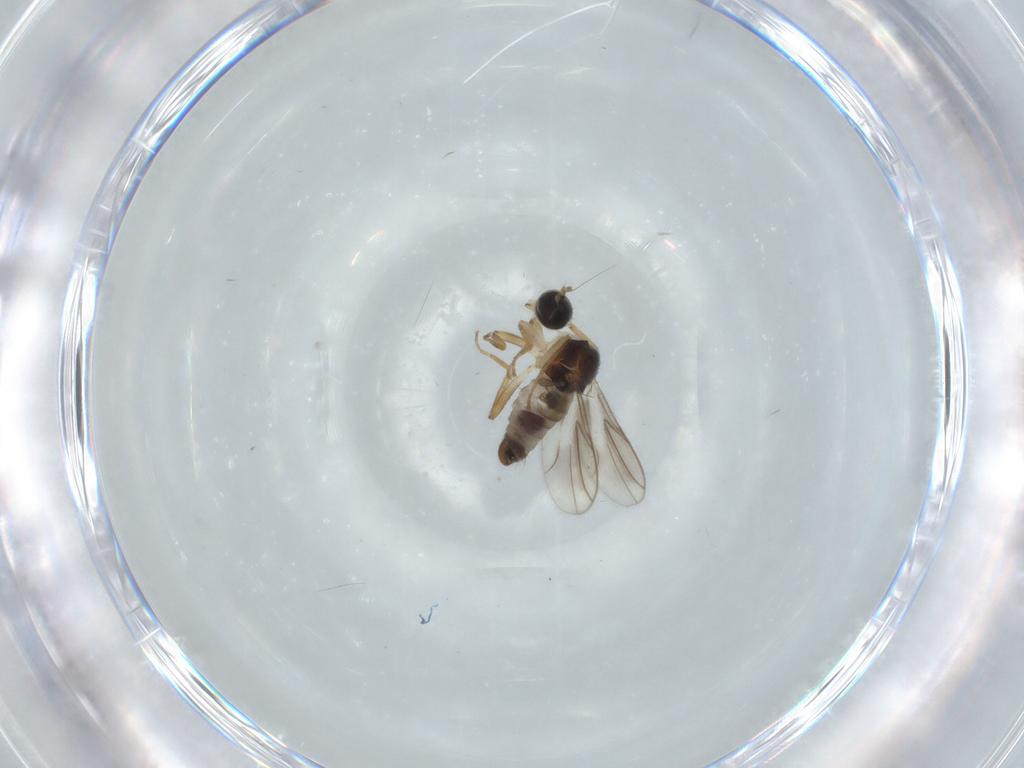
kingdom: Animalia
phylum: Arthropoda
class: Insecta
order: Diptera
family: Hybotidae
